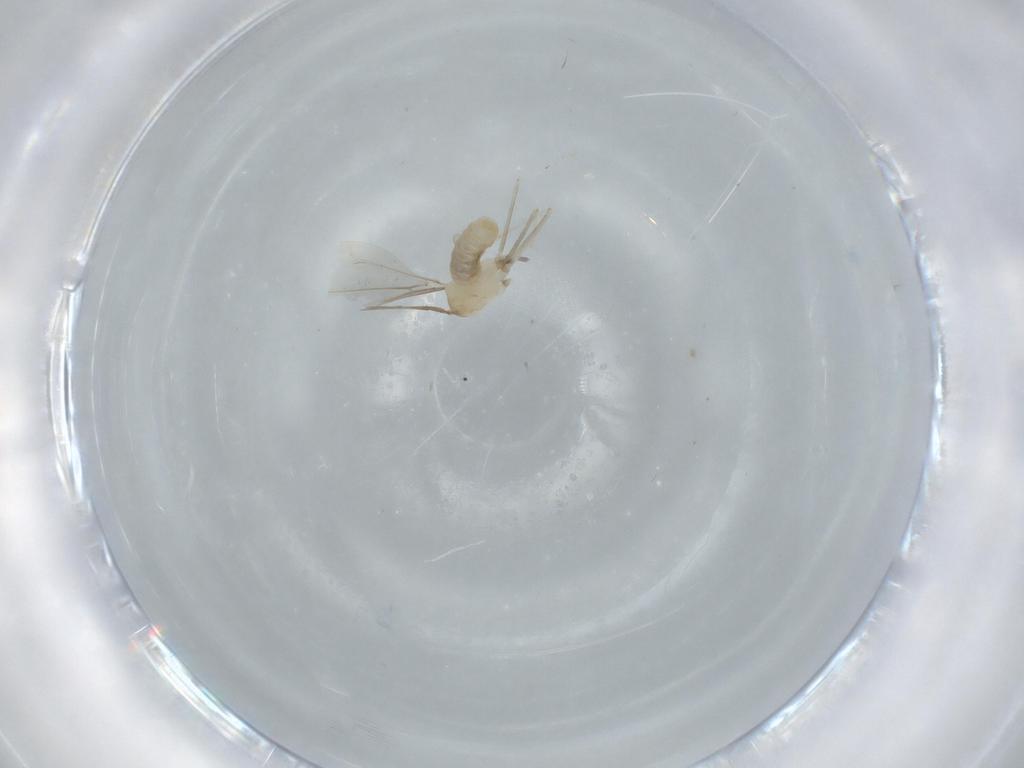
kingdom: Animalia
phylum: Arthropoda
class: Insecta
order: Diptera
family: Cecidomyiidae
